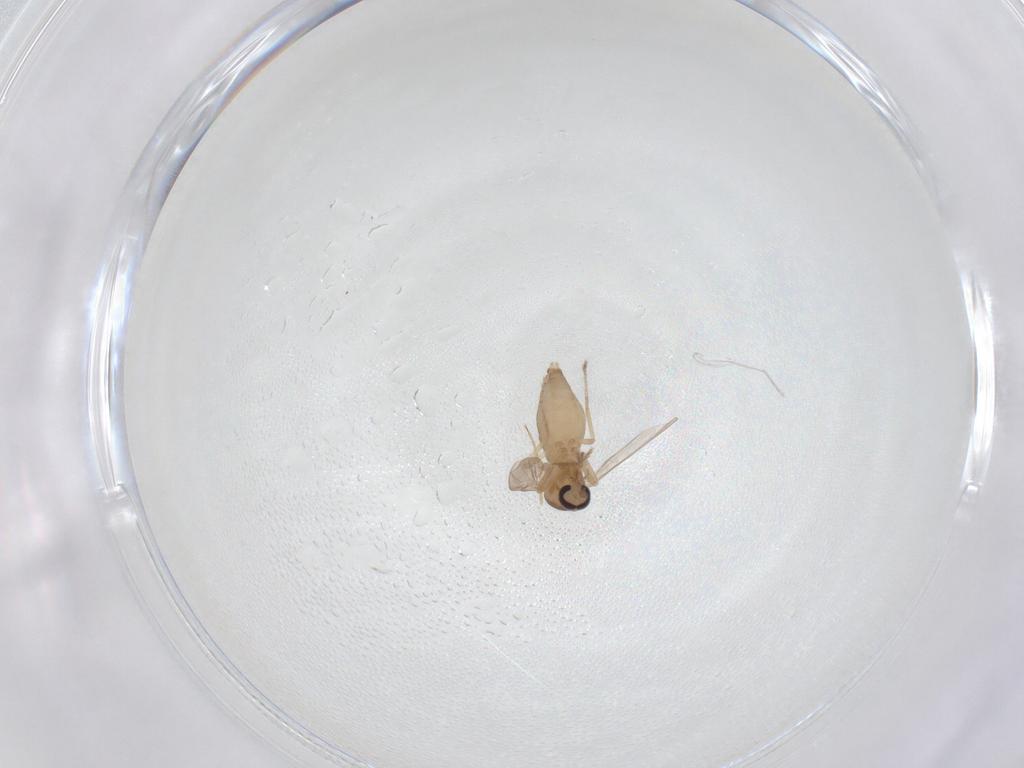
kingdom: Animalia
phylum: Arthropoda
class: Insecta
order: Diptera
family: Ceratopogonidae
